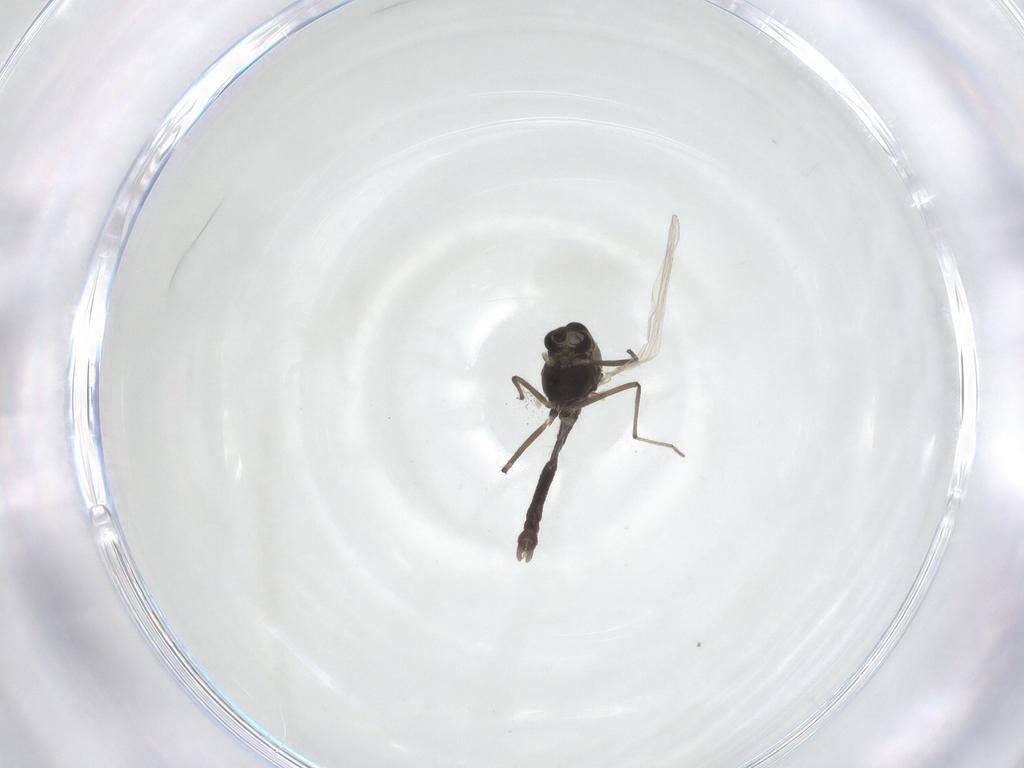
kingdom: Animalia
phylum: Arthropoda
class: Insecta
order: Diptera
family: Chironomidae
